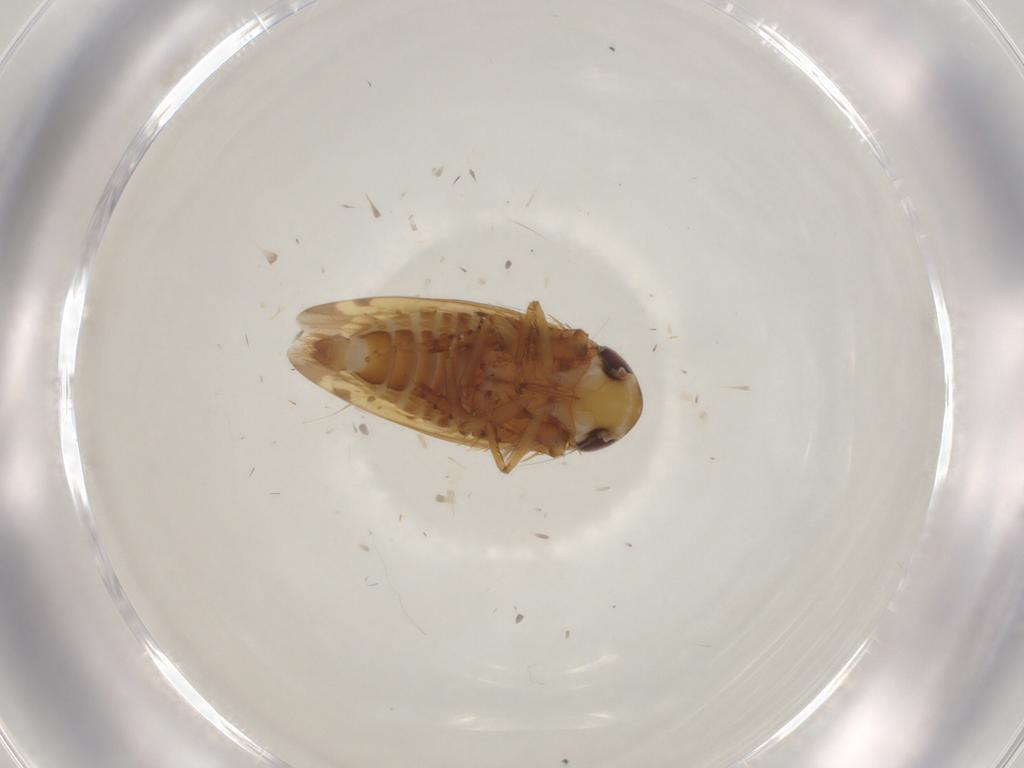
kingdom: Animalia
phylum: Arthropoda
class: Insecta
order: Hemiptera
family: Cicadellidae
